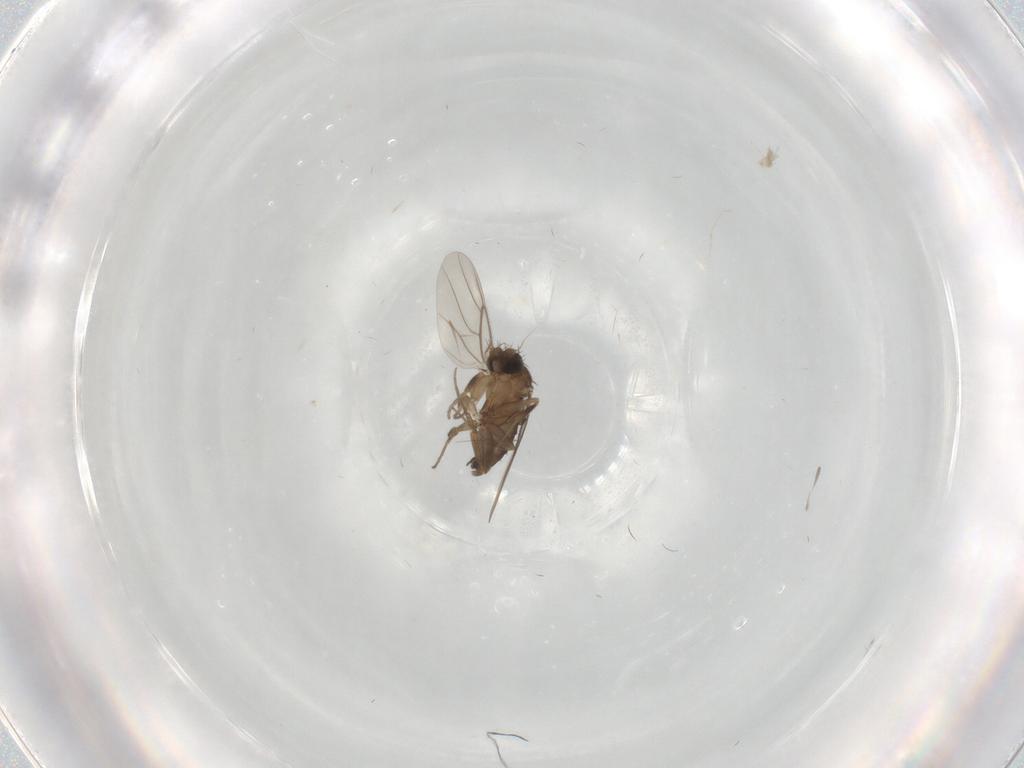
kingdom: Animalia
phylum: Arthropoda
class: Insecta
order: Diptera
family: Phoridae
